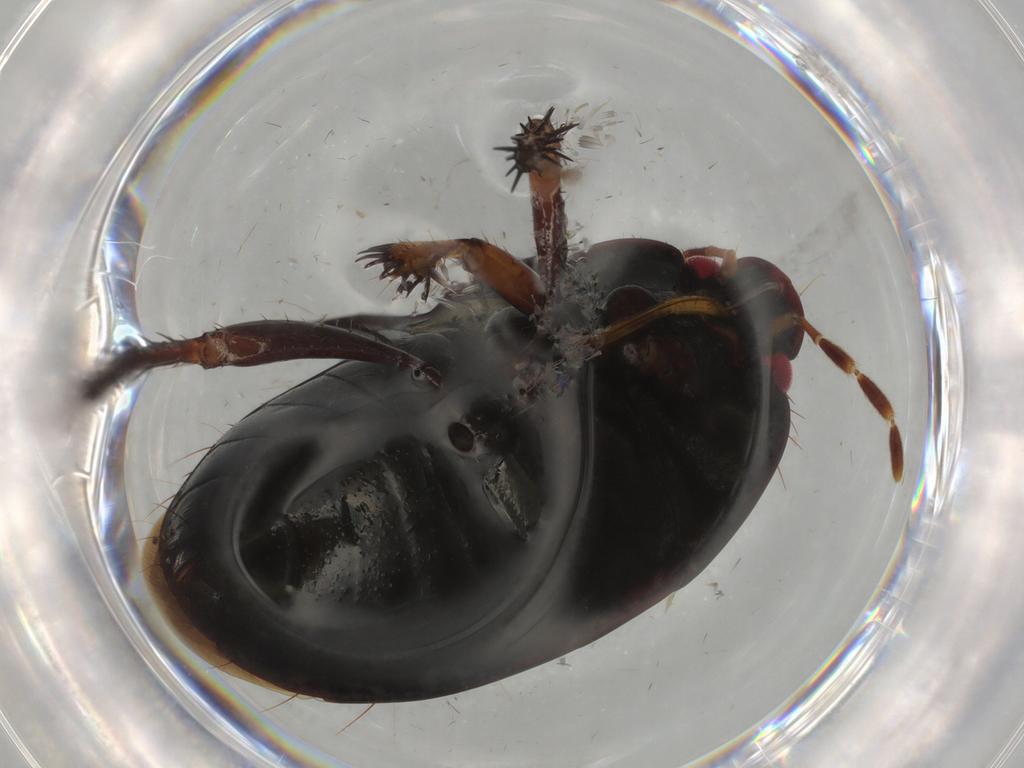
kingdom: Animalia
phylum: Arthropoda
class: Insecta
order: Hemiptera
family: Cydnidae
